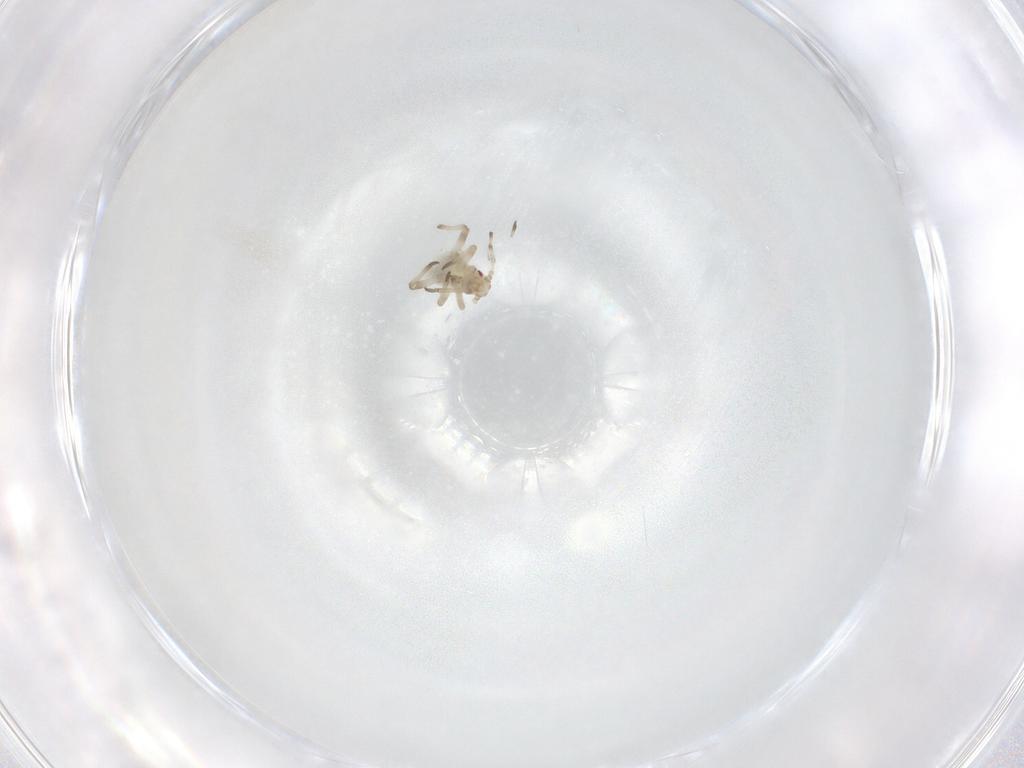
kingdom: Animalia
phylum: Arthropoda
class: Insecta
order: Hemiptera
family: Aphididae
